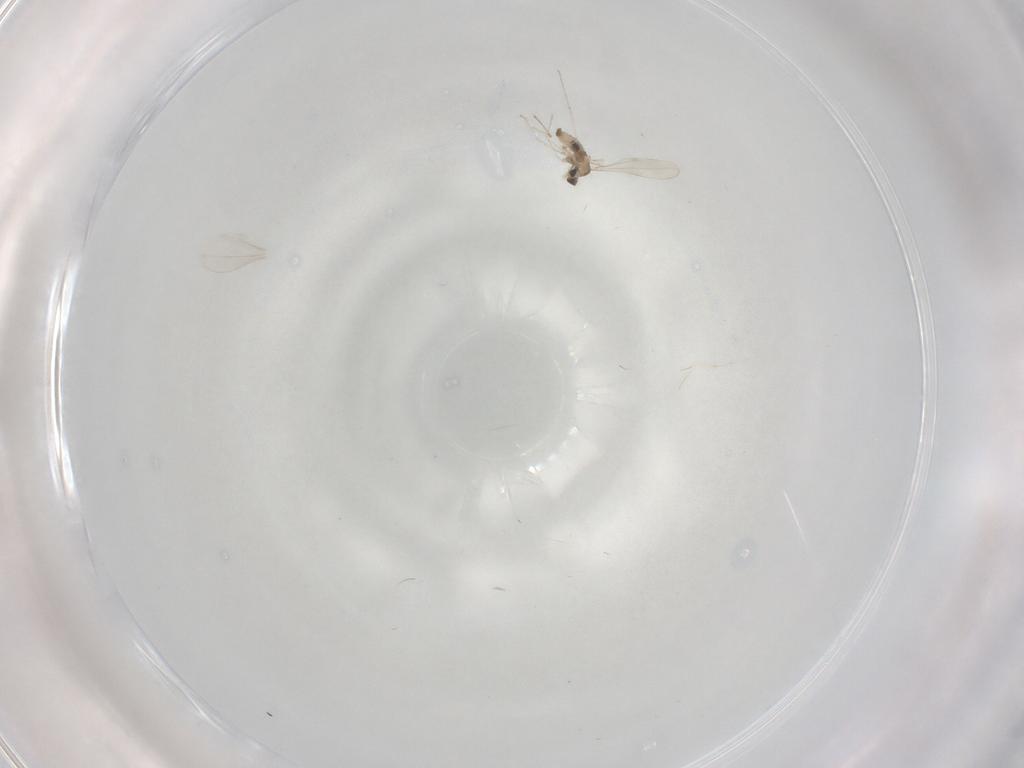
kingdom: Animalia
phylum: Arthropoda
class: Insecta
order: Diptera
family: Cecidomyiidae
